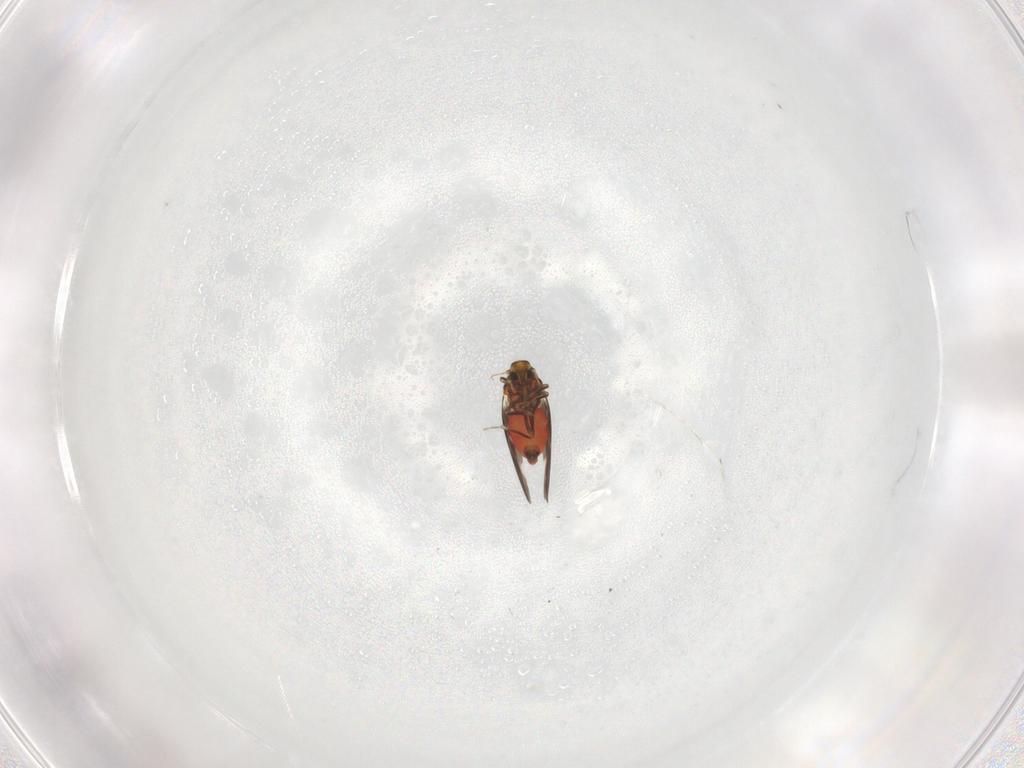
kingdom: Animalia
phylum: Arthropoda
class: Insecta
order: Hemiptera
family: Aleyrodidae
